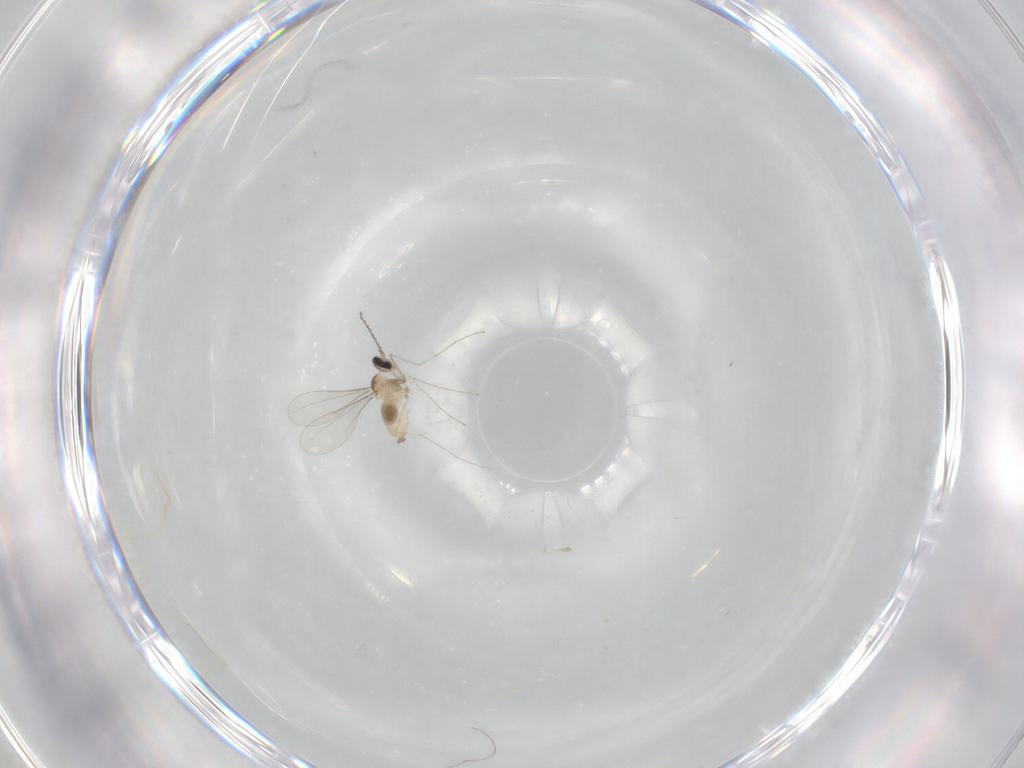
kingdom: Animalia
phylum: Arthropoda
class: Insecta
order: Diptera
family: Cecidomyiidae
